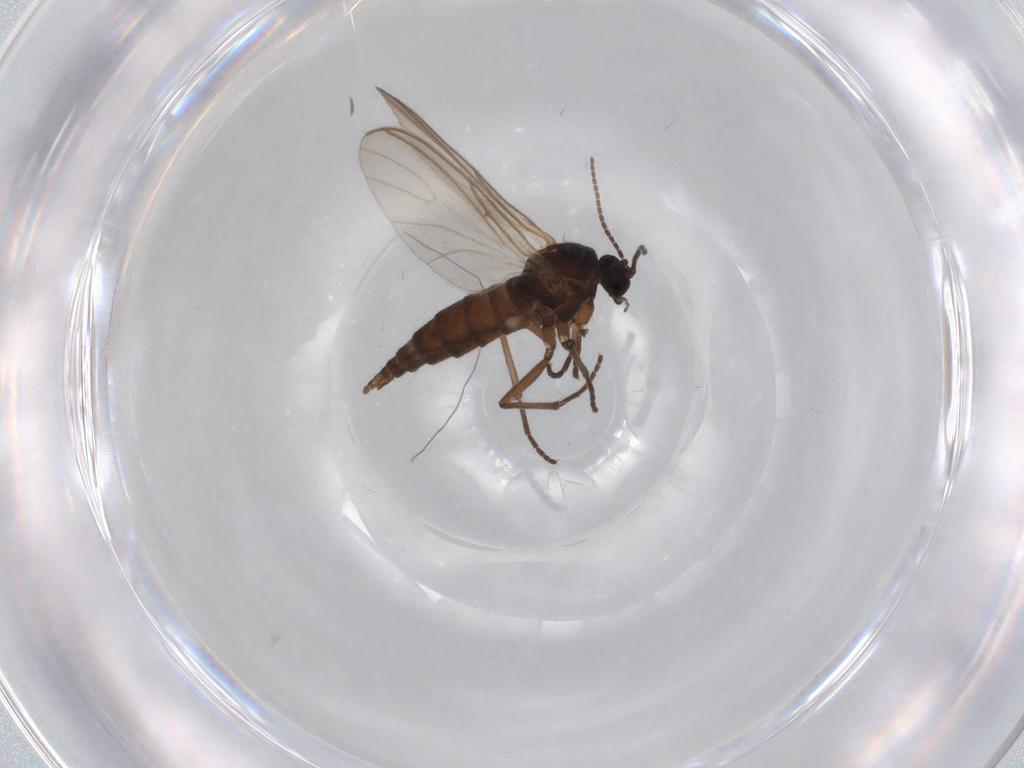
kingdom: Animalia
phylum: Arthropoda
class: Insecta
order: Diptera
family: Sciaridae
